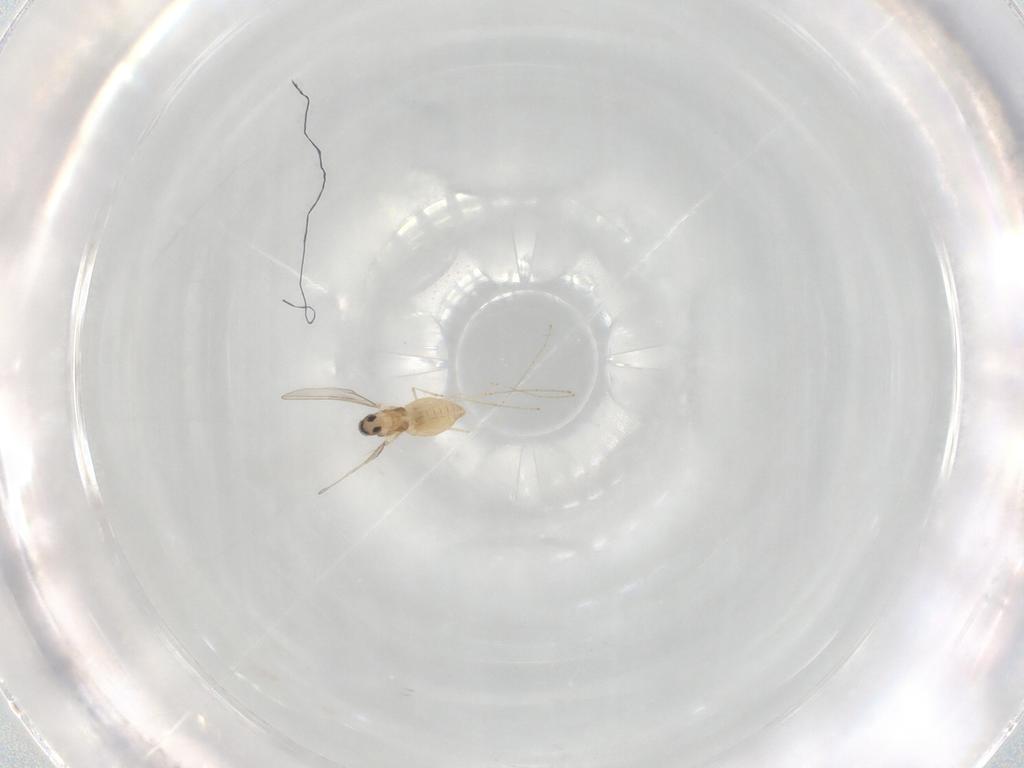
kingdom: Animalia
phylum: Arthropoda
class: Insecta
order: Diptera
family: Cecidomyiidae
